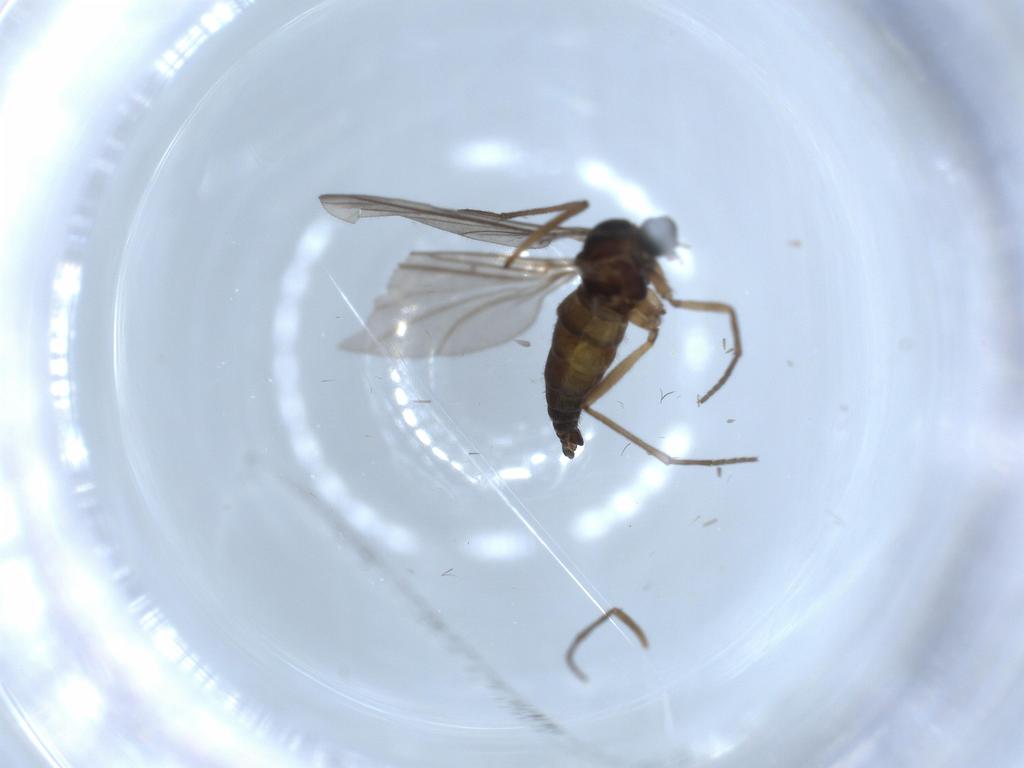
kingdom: Animalia
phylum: Arthropoda
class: Insecta
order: Diptera
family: Sciaridae
